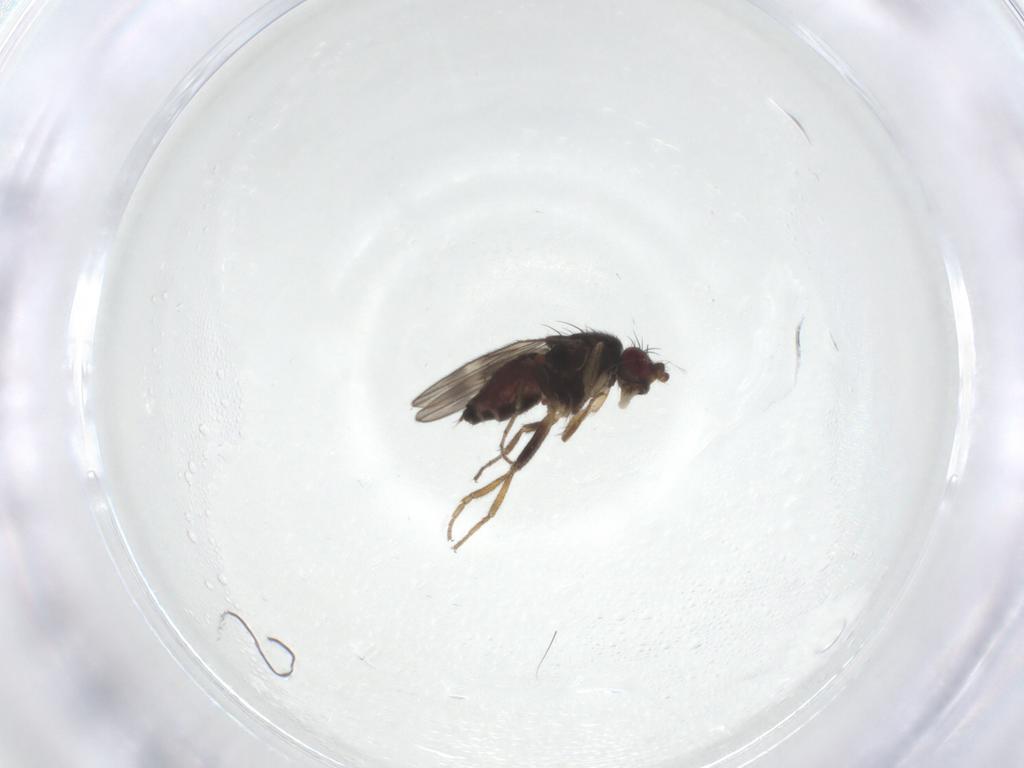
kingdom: Animalia
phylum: Arthropoda
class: Insecta
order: Diptera
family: Sphaeroceridae
